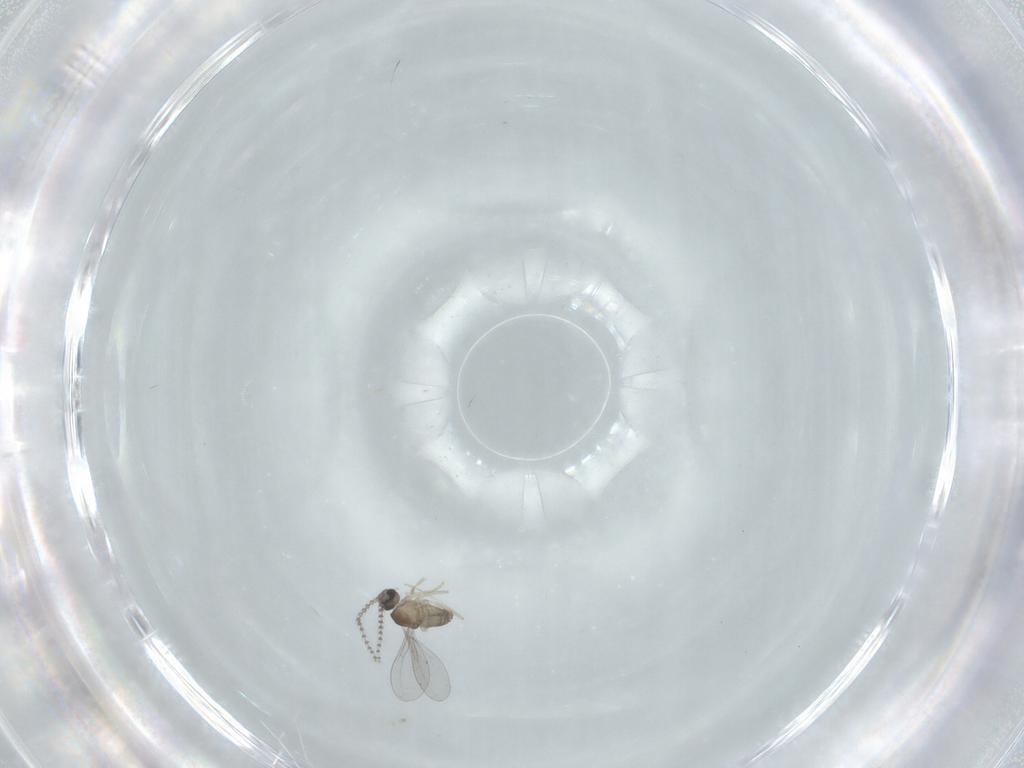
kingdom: Animalia
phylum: Arthropoda
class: Insecta
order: Diptera
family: Cecidomyiidae
